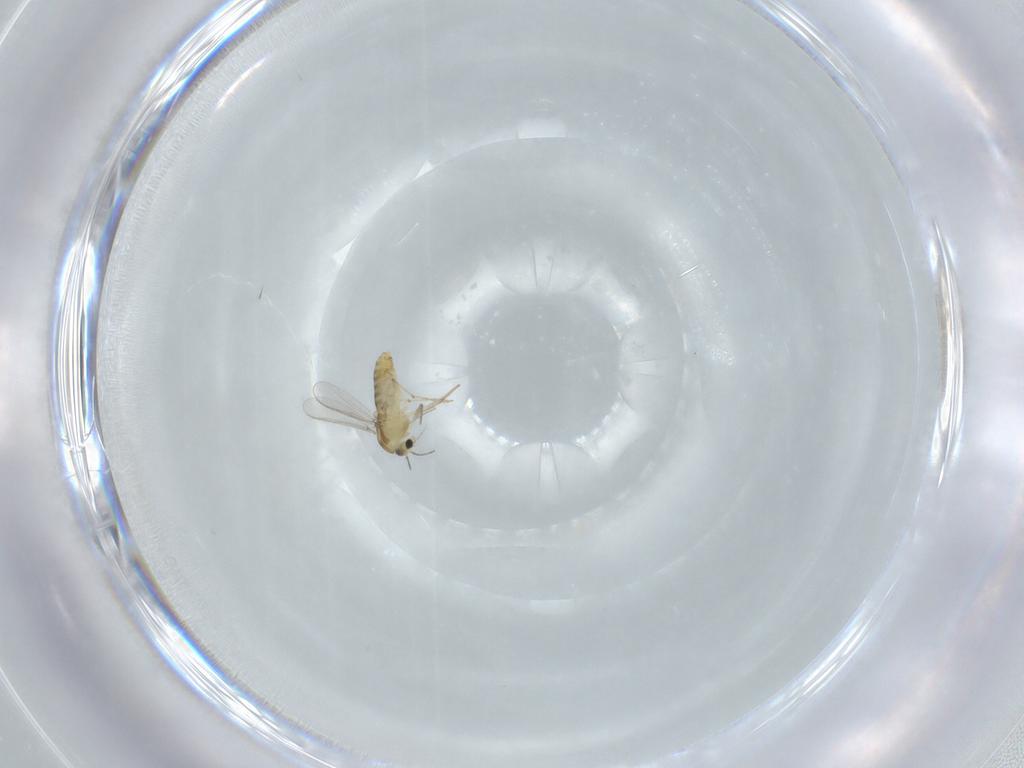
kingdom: Animalia
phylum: Arthropoda
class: Insecta
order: Diptera
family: Chironomidae
